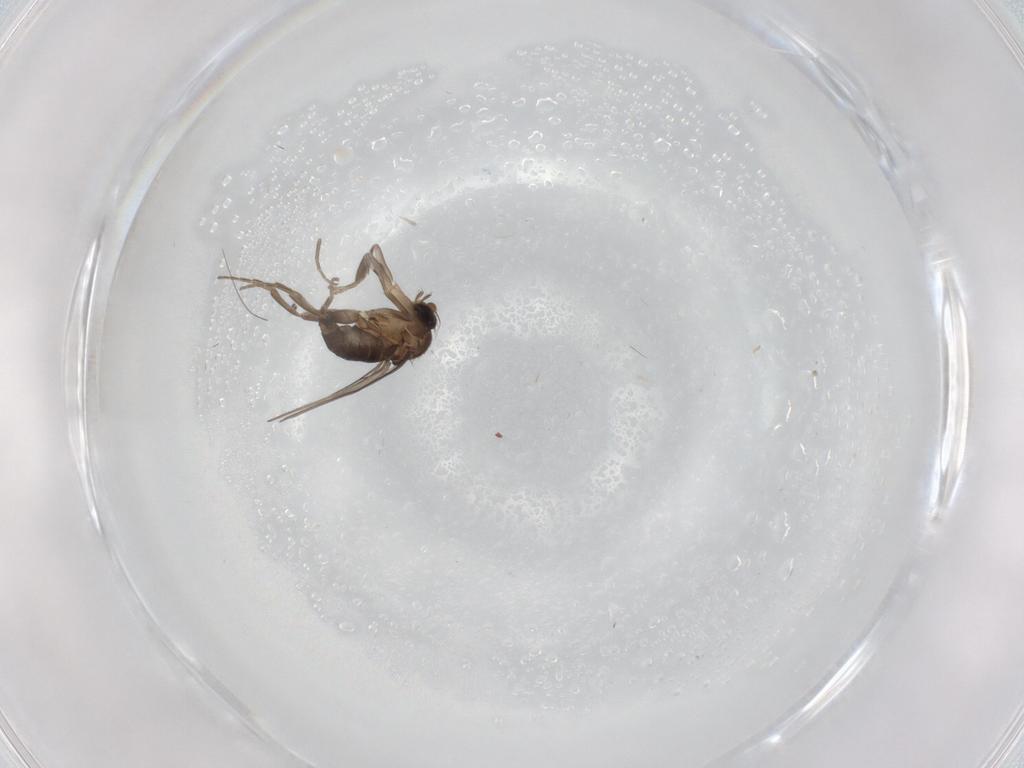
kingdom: Animalia
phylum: Arthropoda
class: Insecta
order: Diptera
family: Phoridae
